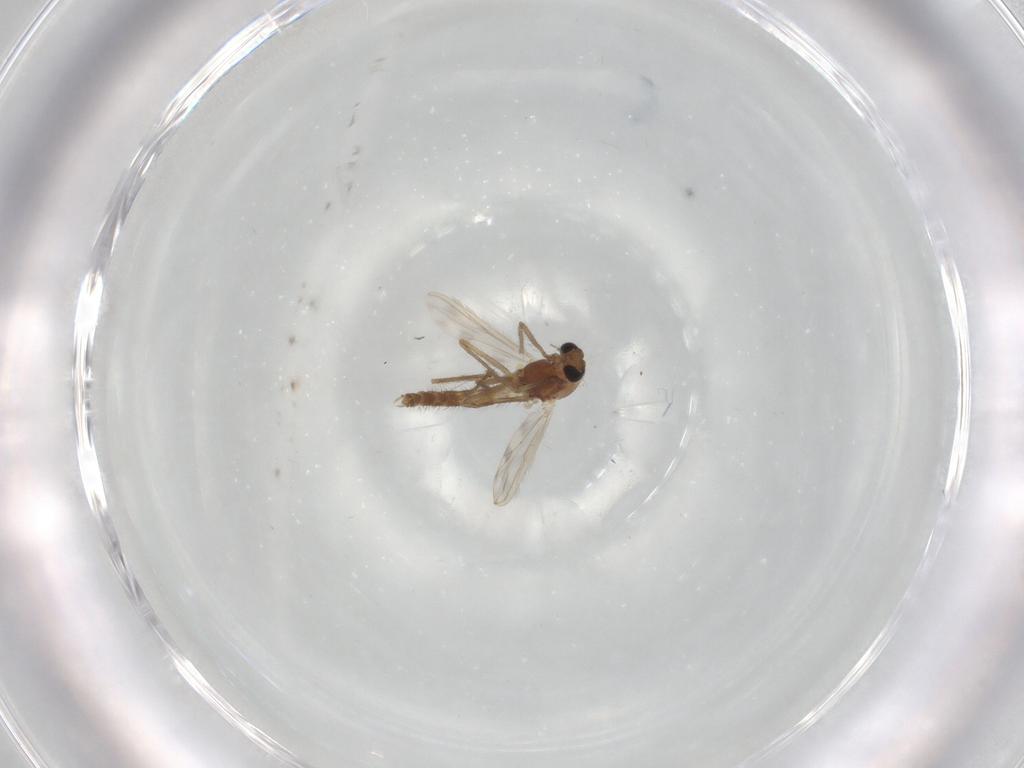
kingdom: Animalia
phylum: Arthropoda
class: Insecta
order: Diptera
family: Chironomidae
